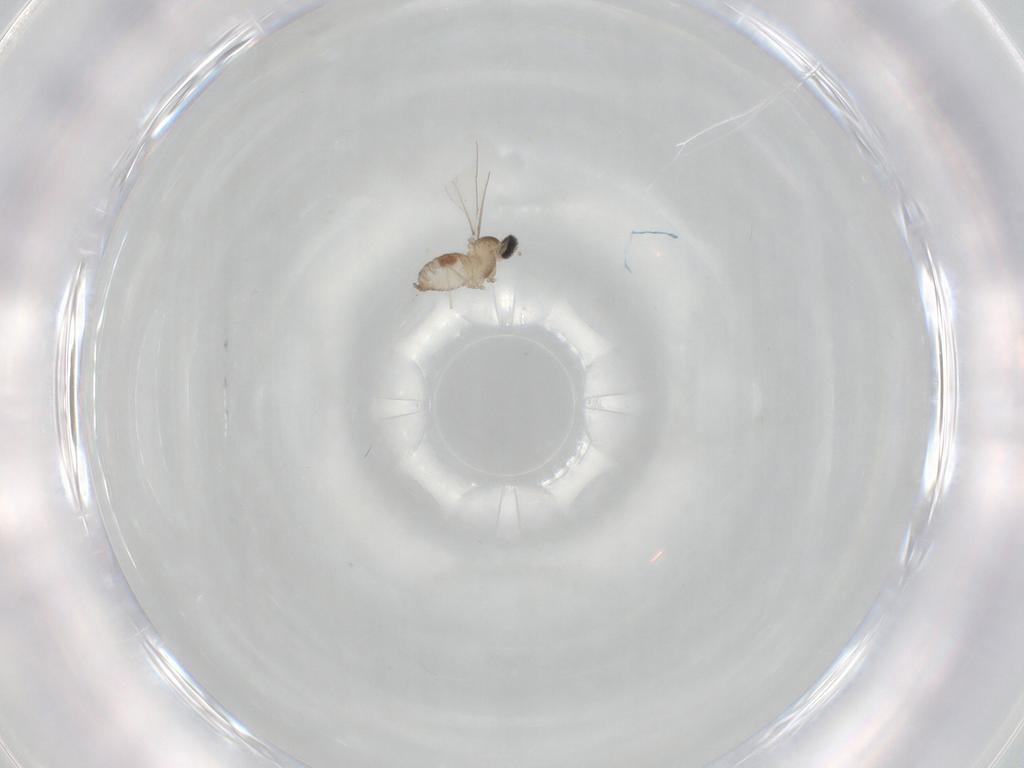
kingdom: Animalia
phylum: Arthropoda
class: Insecta
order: Diptera
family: Cecidomyiidae
